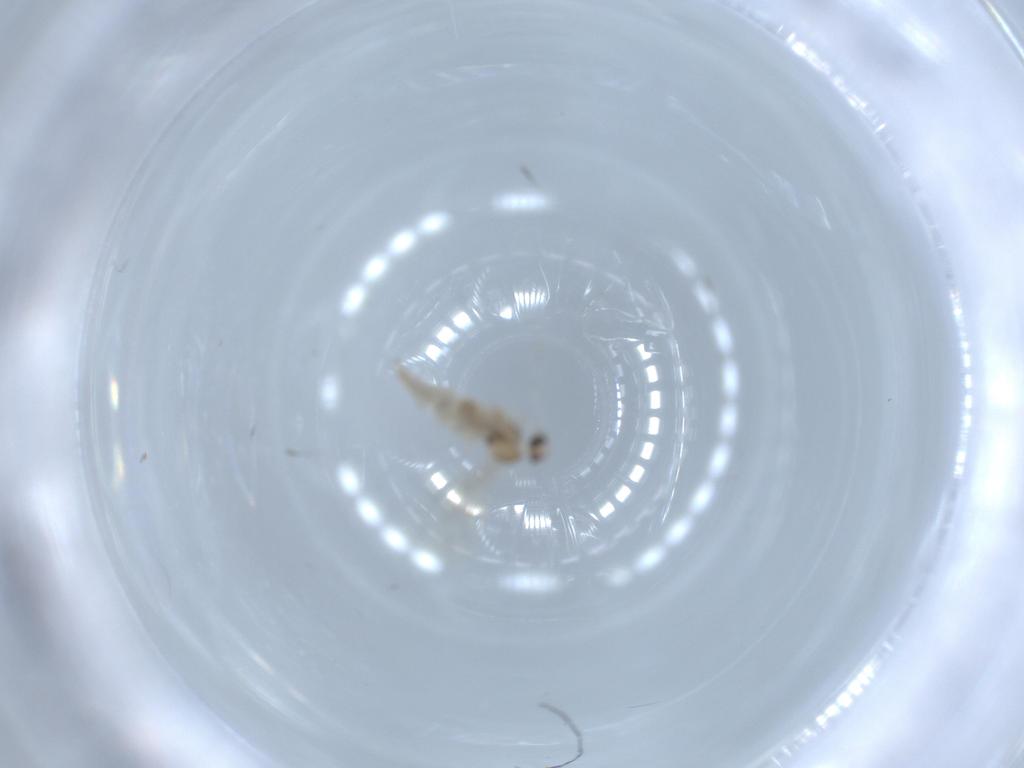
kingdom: Animalia
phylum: Arthropoda
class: Insecta
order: Diptera
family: Cecidomyiidae
